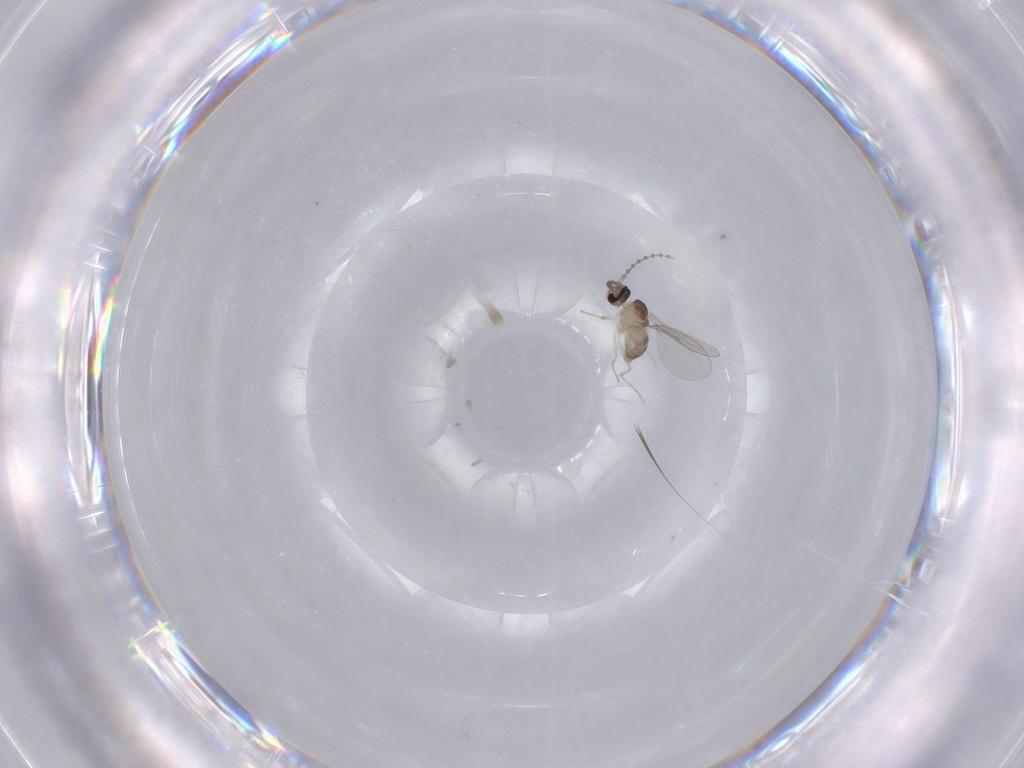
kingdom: Animalia
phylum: Arthropoda
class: Insecta
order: Diptera
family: Cecidomyiidae
